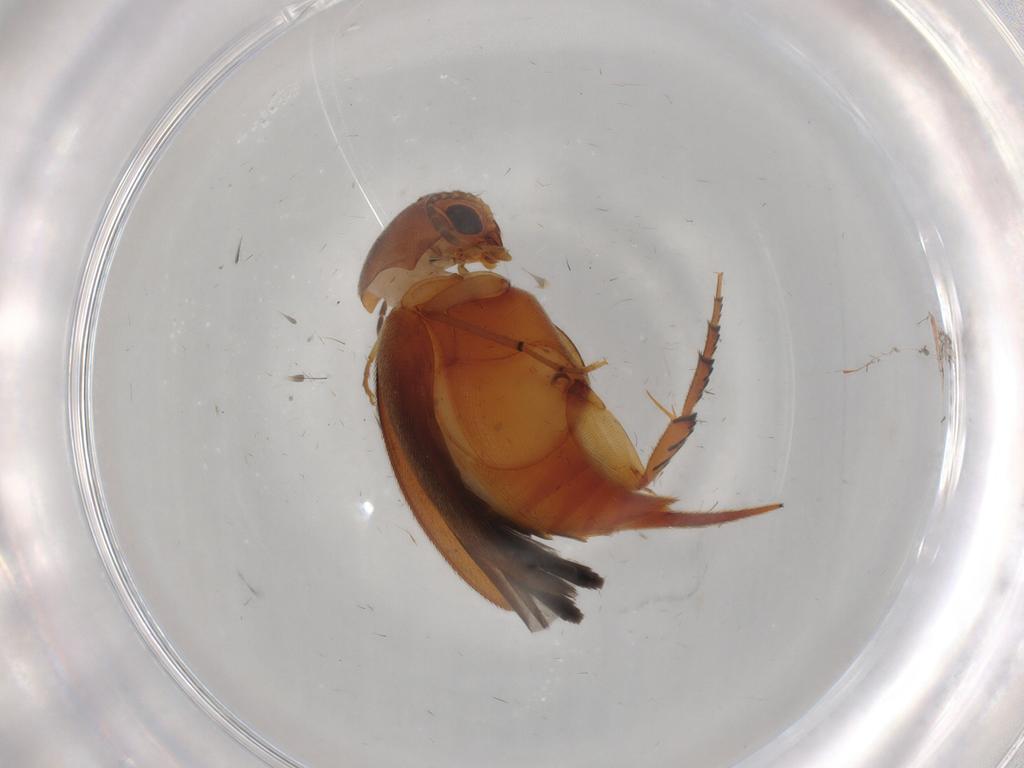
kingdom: Animalia
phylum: Arthropoda
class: Insecta
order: Coleoptera
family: Mordellidae
